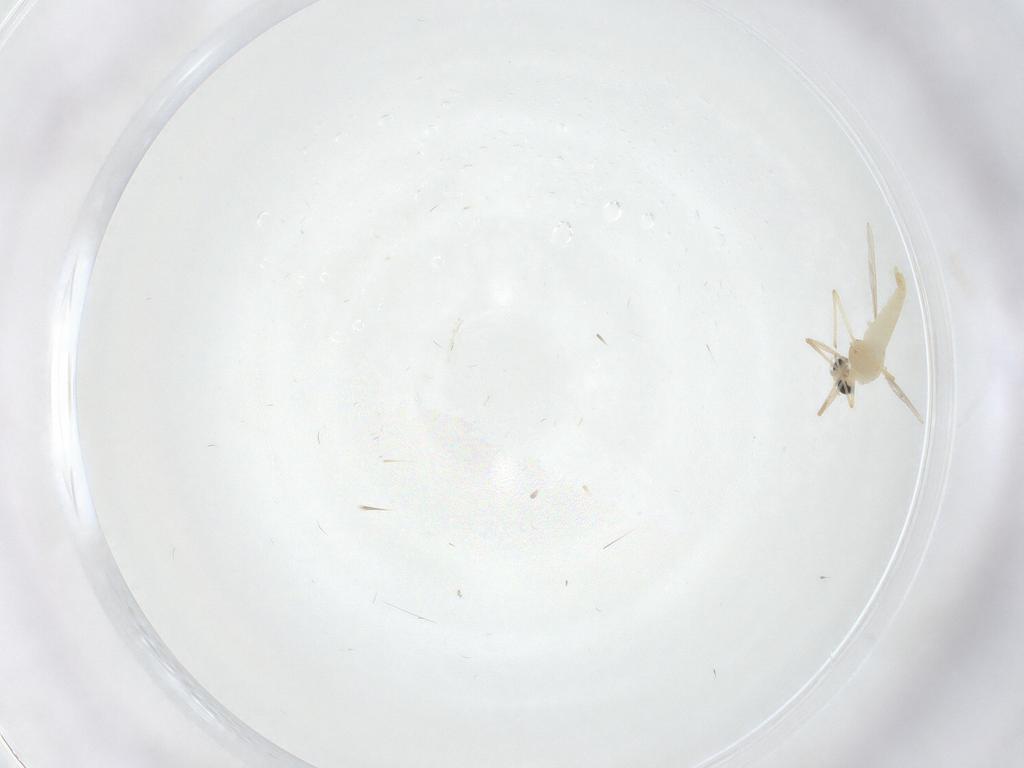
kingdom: Animalia
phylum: Arthropoda
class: Insecta
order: Diptera
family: Chironomidae
